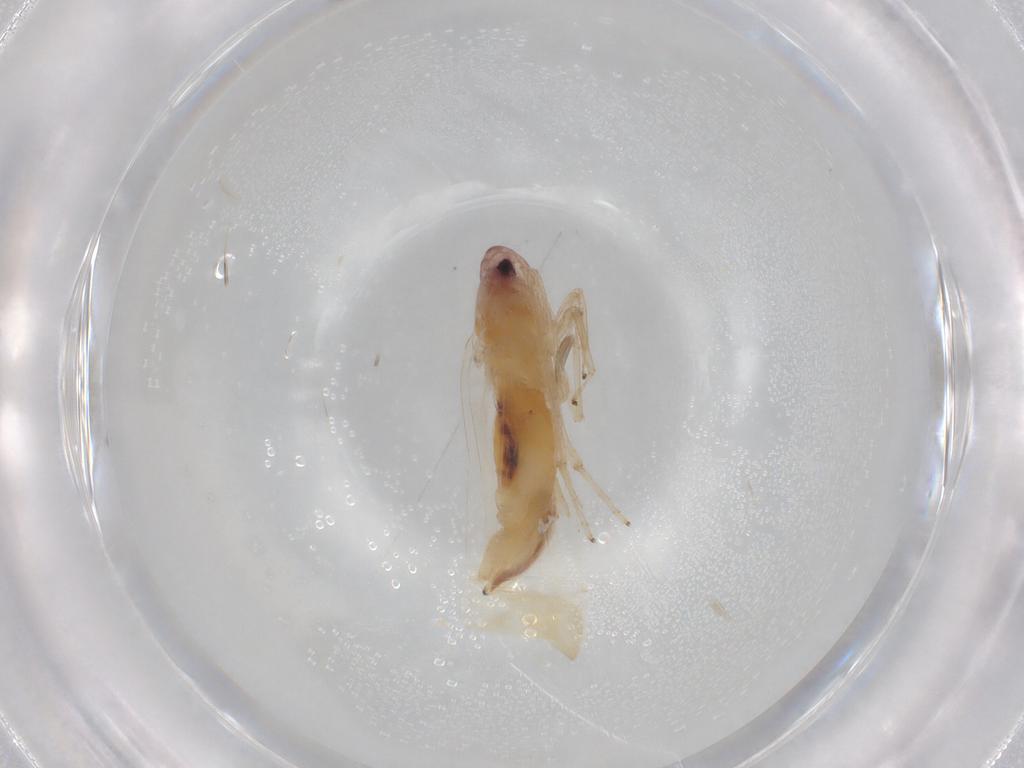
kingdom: Animalia
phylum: Arthropoda
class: Insecta
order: Hemiptera
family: Cicadellidae
